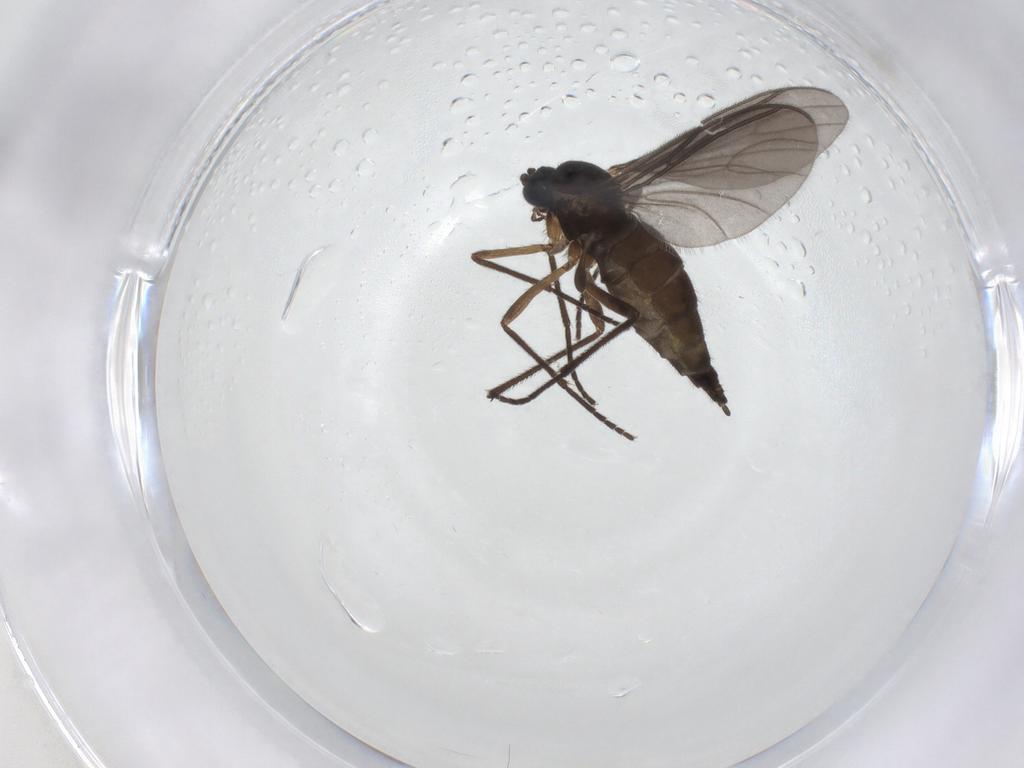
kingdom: Animalia
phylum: Arthropoda
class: Insecta
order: Diptera
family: Sciaridae
